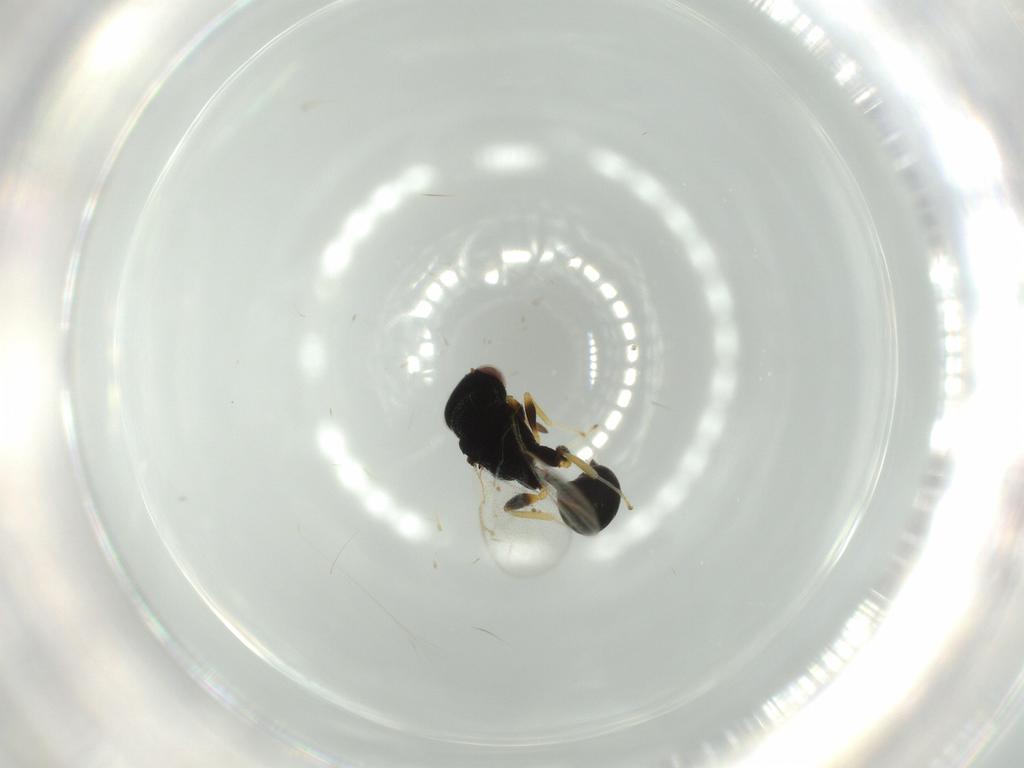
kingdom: Animalia
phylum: Arthropoda
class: Insecta
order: Hymenoptera
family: Eurytomidae
